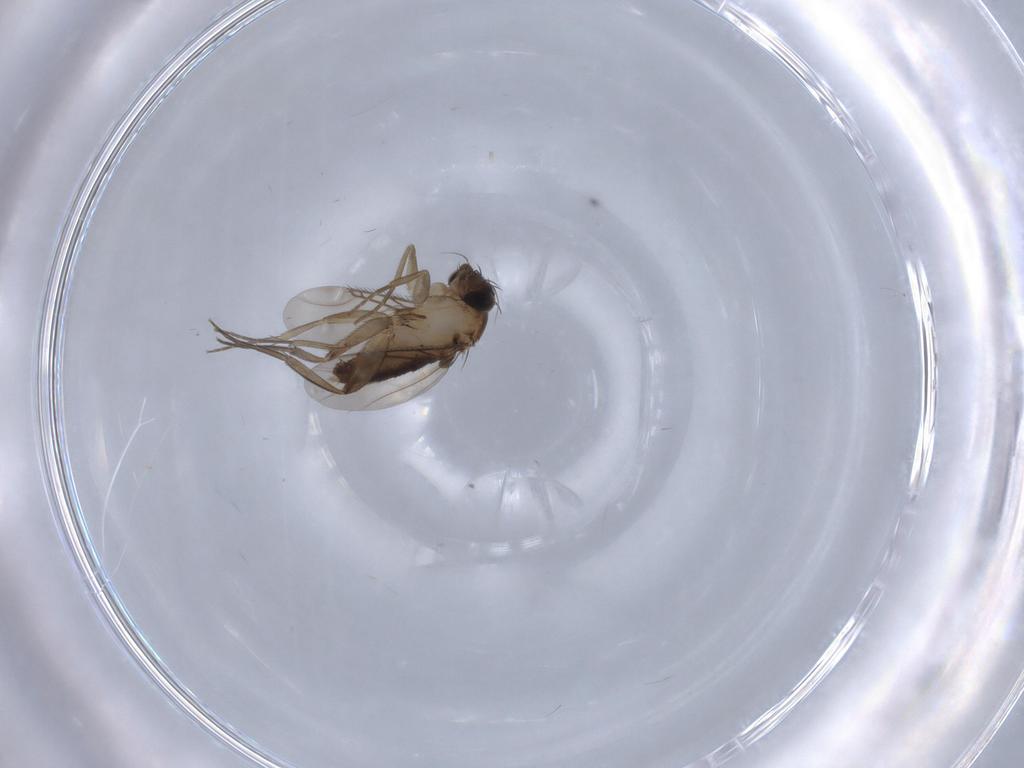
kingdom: Animalia
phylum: Arthropoda
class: Insecta
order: Diptera
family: Phoridae
